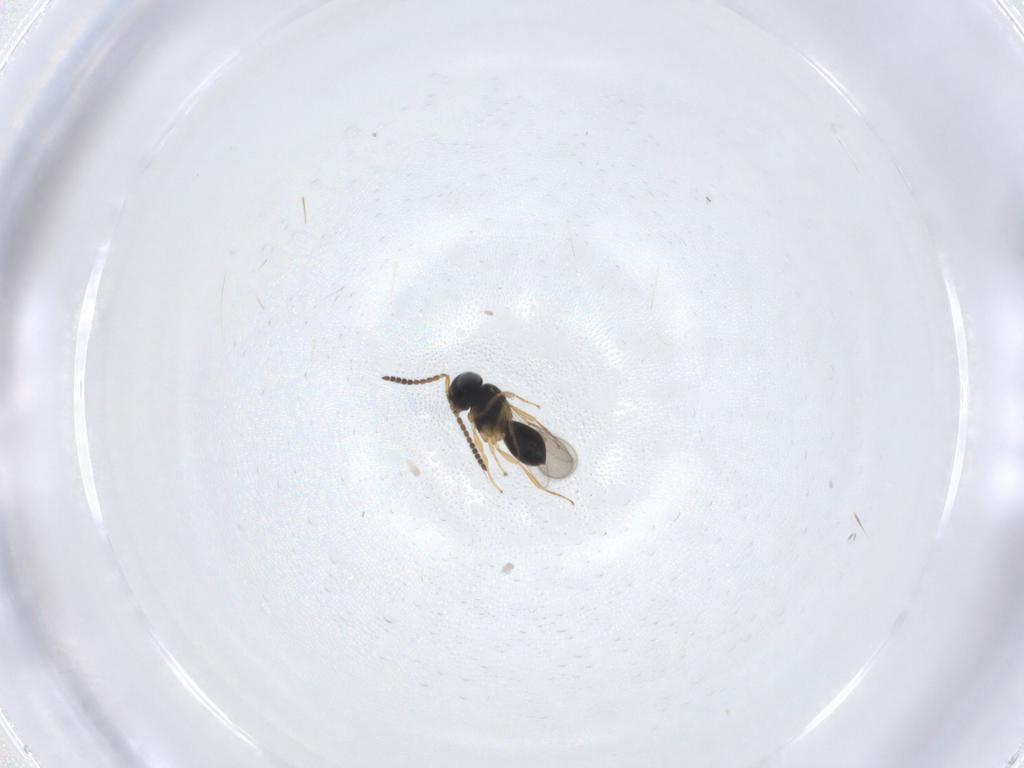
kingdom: Animalia
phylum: Arthropoda
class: Insecta
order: Hymenoptera
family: Scelionidae
